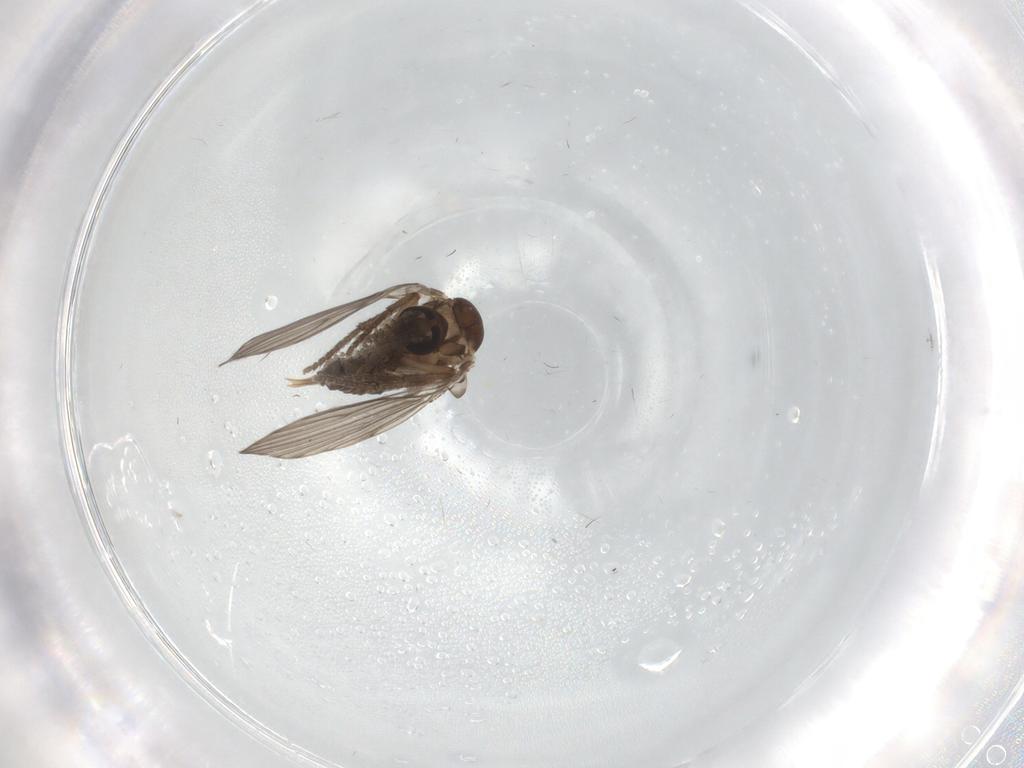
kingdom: Animalia
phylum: Arthropoda
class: Insecta
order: Diptera
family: Cecidomyiidae
